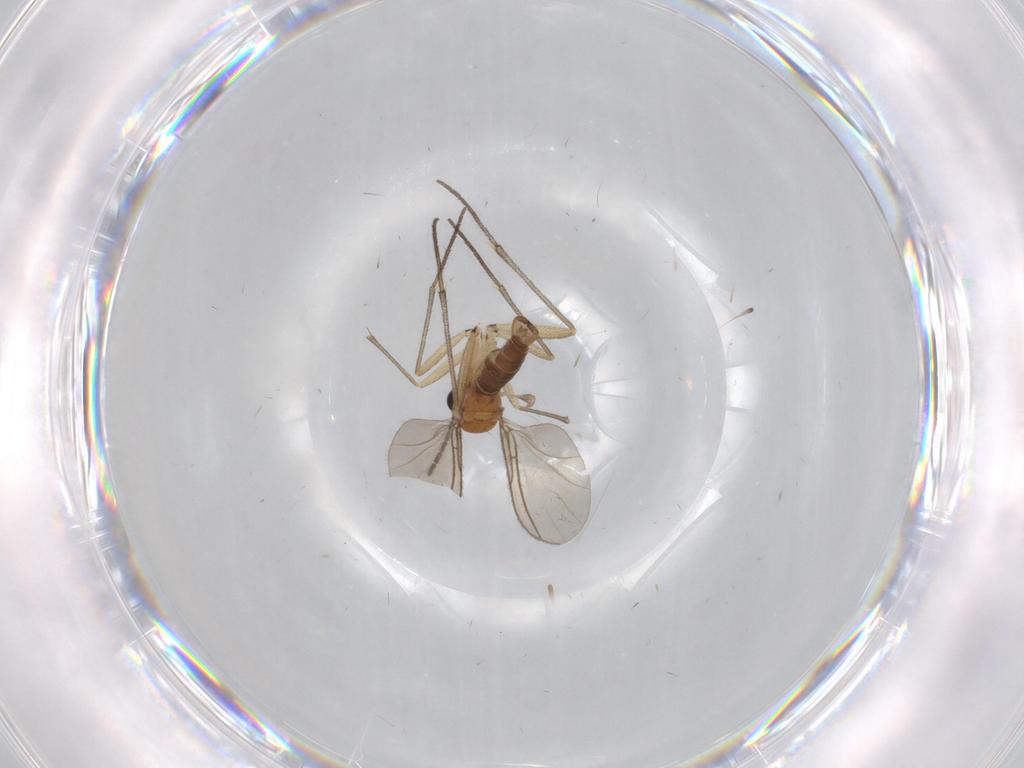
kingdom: Animalia
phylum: Arthropoda
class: Insecta
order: Diptera
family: Sciaridae
